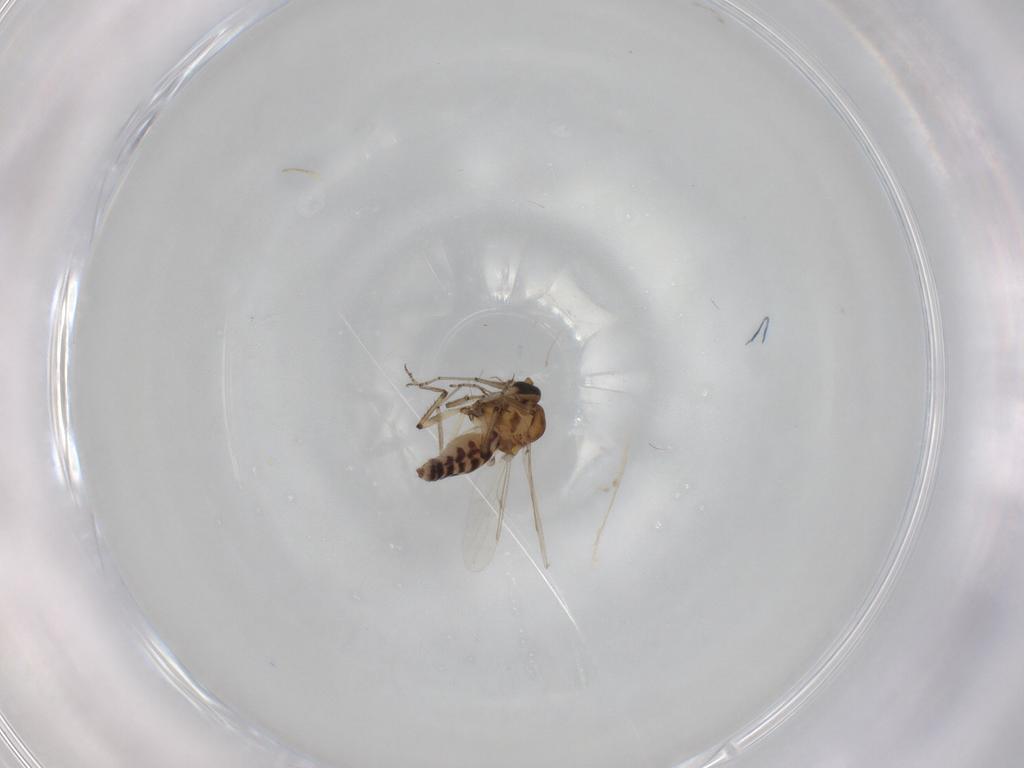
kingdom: Animalia
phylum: Arthropoda
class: Insecta
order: Diptera
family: Ceratopogonidae
